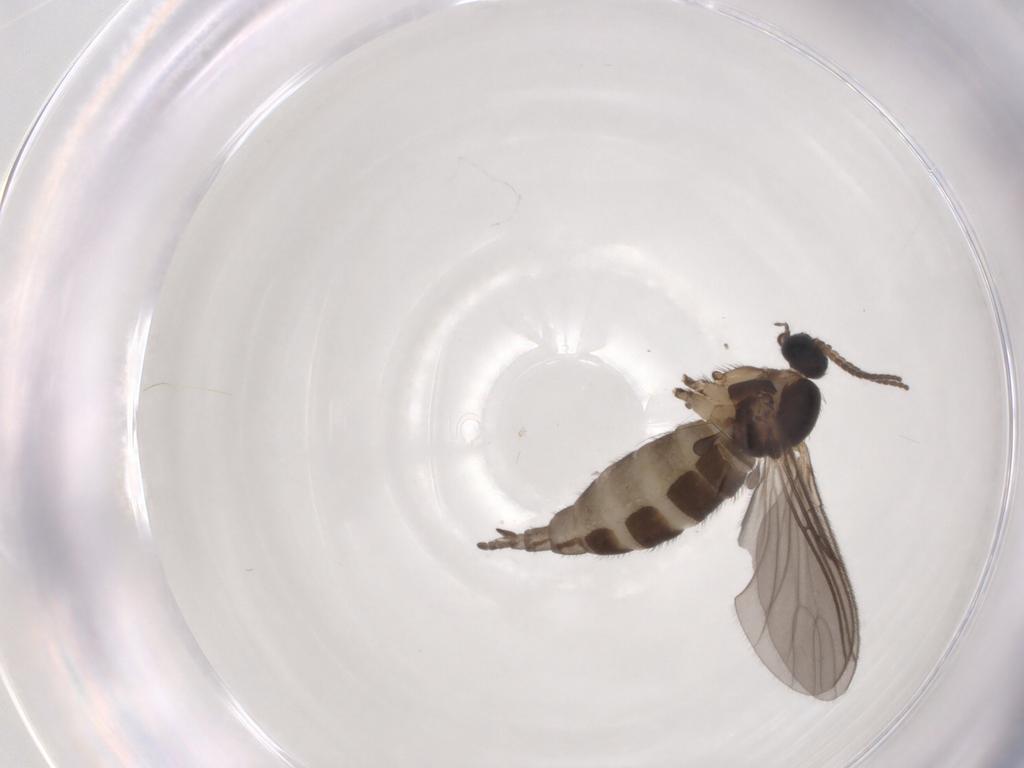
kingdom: Animalia
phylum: Arthropoda
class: Insecta
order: Diptera
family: Sciaridae
